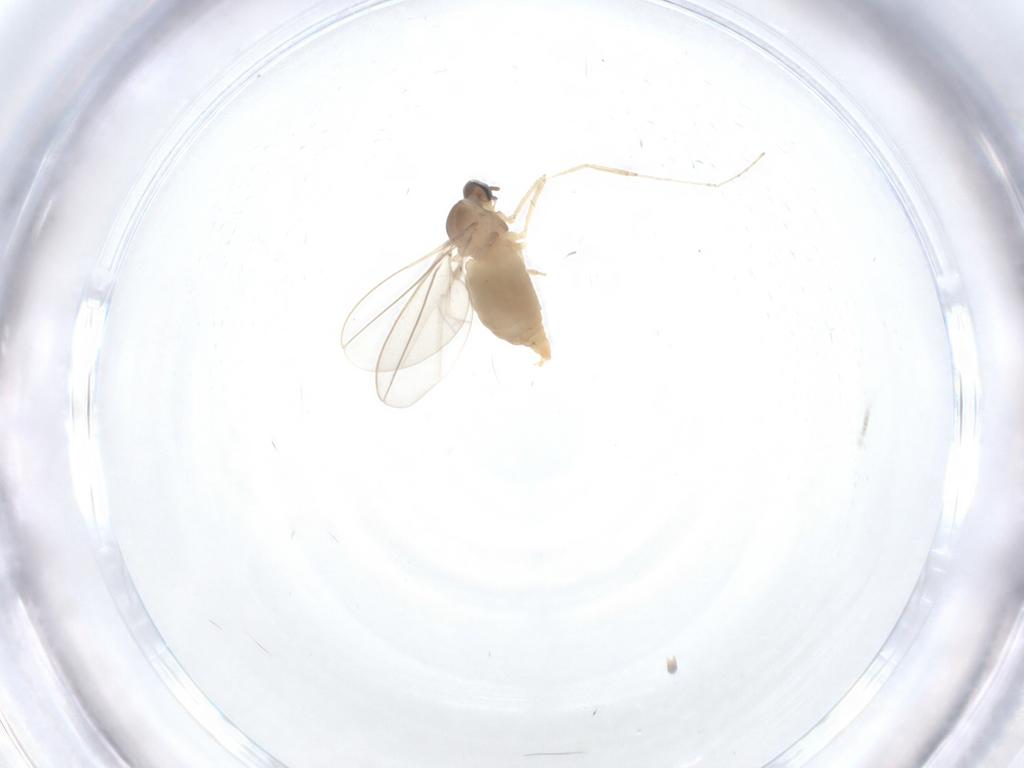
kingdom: Animalia
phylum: Arthropoda
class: Insecta
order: Diptera
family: Cecidomyiidae
